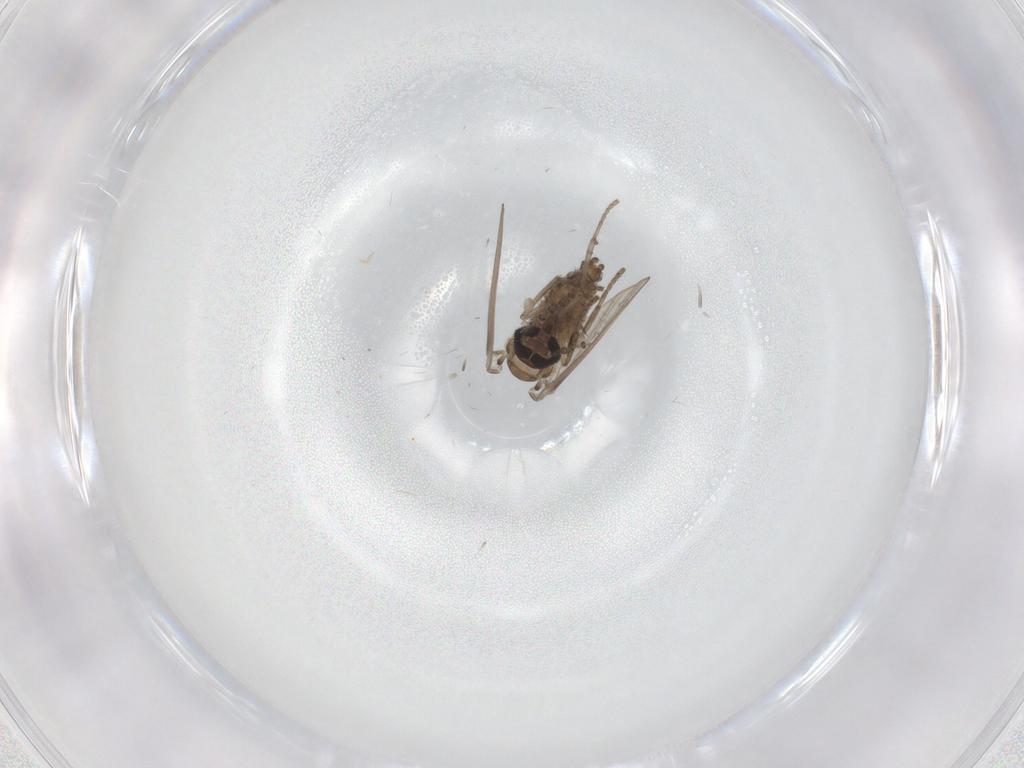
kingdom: Animalia
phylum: Arthropoda
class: Insecta
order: Diptera
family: Psychodidae
